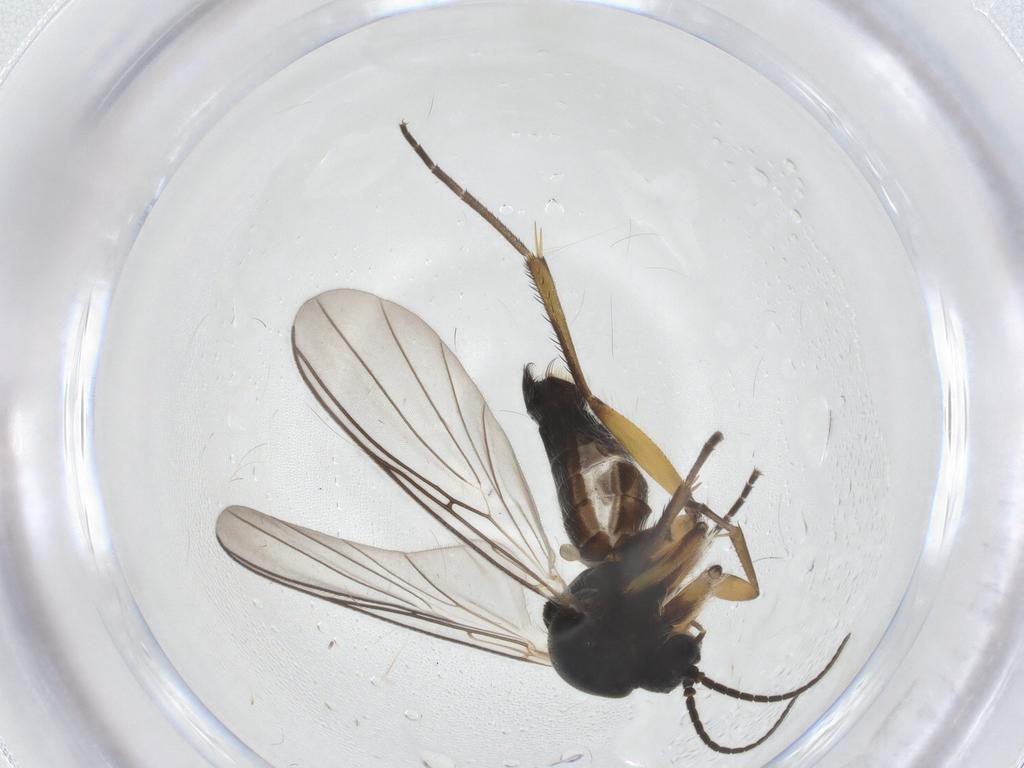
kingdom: Animalia
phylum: Arthropoda
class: Insecta
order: Diptera
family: Mycetophilidae
